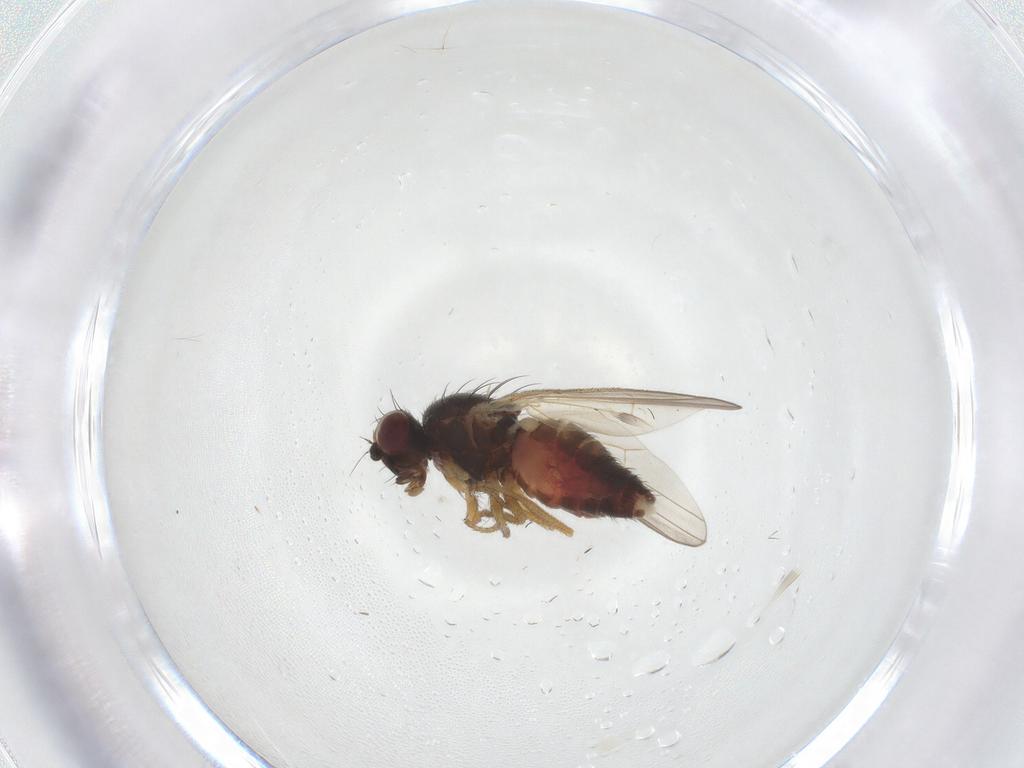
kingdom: Animalia
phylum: Arthropoda
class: Insecta
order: Diptera
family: Heleomyzidae
